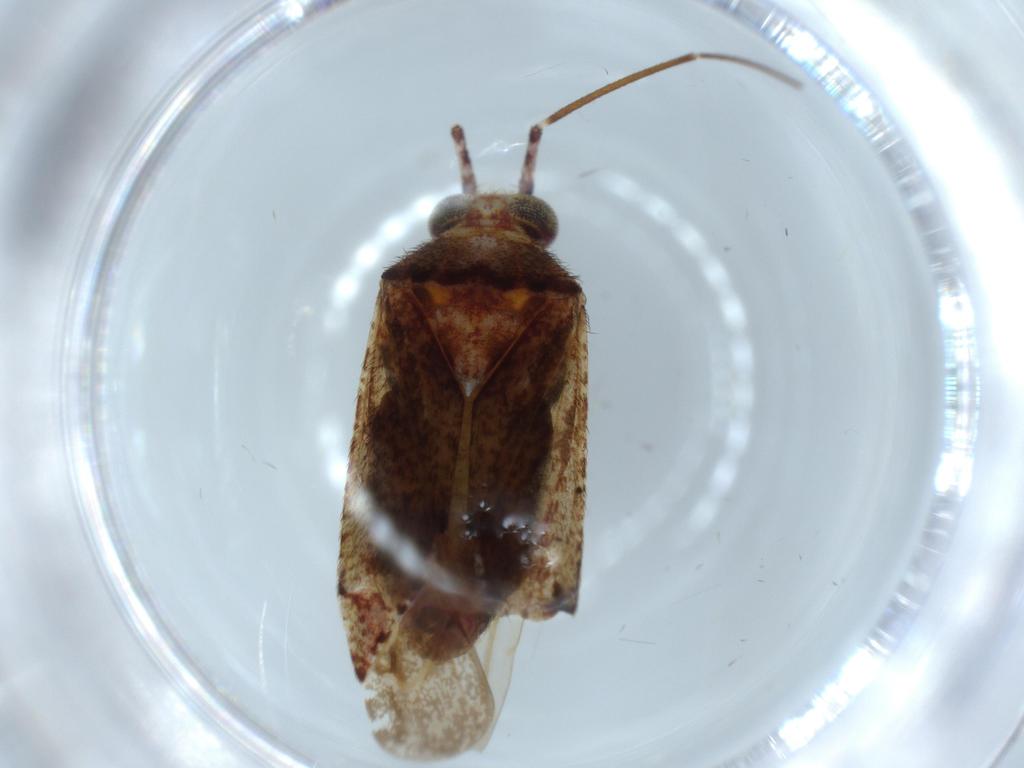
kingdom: Animalia
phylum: Arthropoda
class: Insecta
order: Hemiptera
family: Miridae
